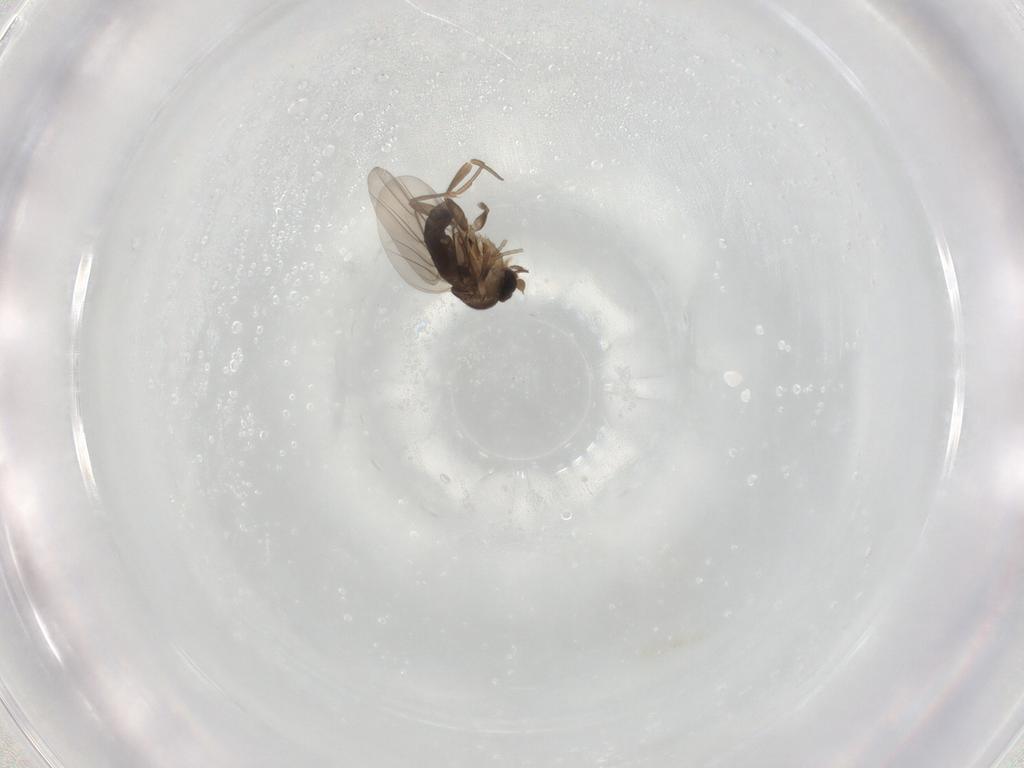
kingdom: Animalia
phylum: Arthropoda
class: Insecta
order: Diptera
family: Phoridae
